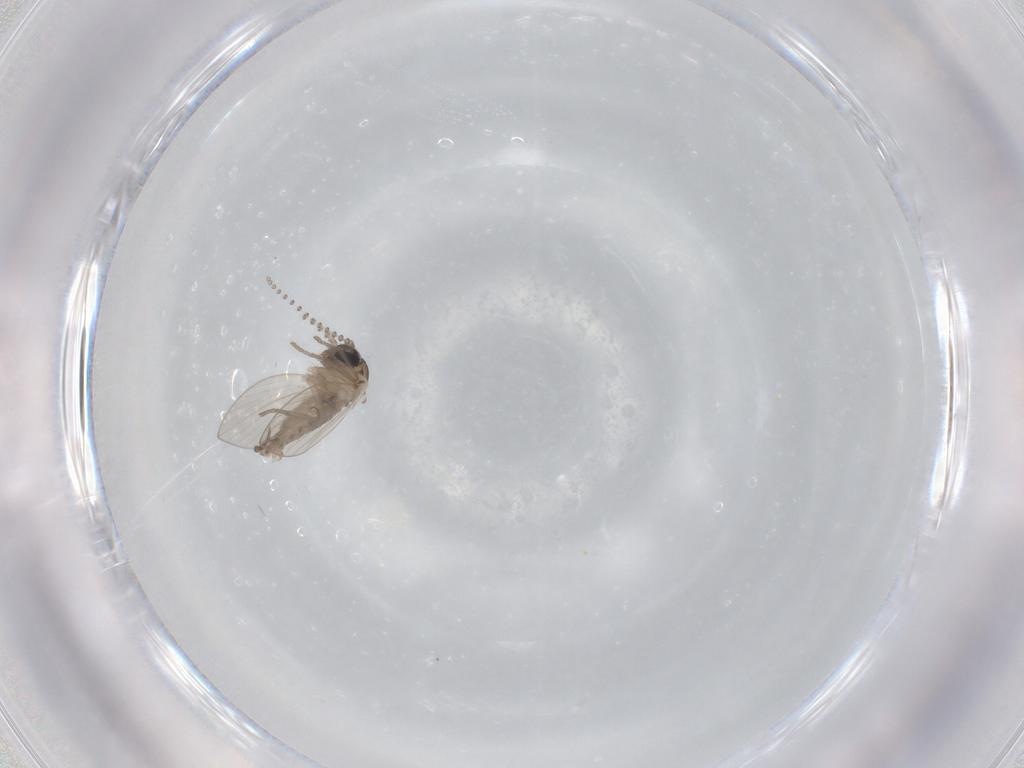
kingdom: Animalia
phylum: Arthropoda
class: Insecta
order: Diptera
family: Psychodidae
